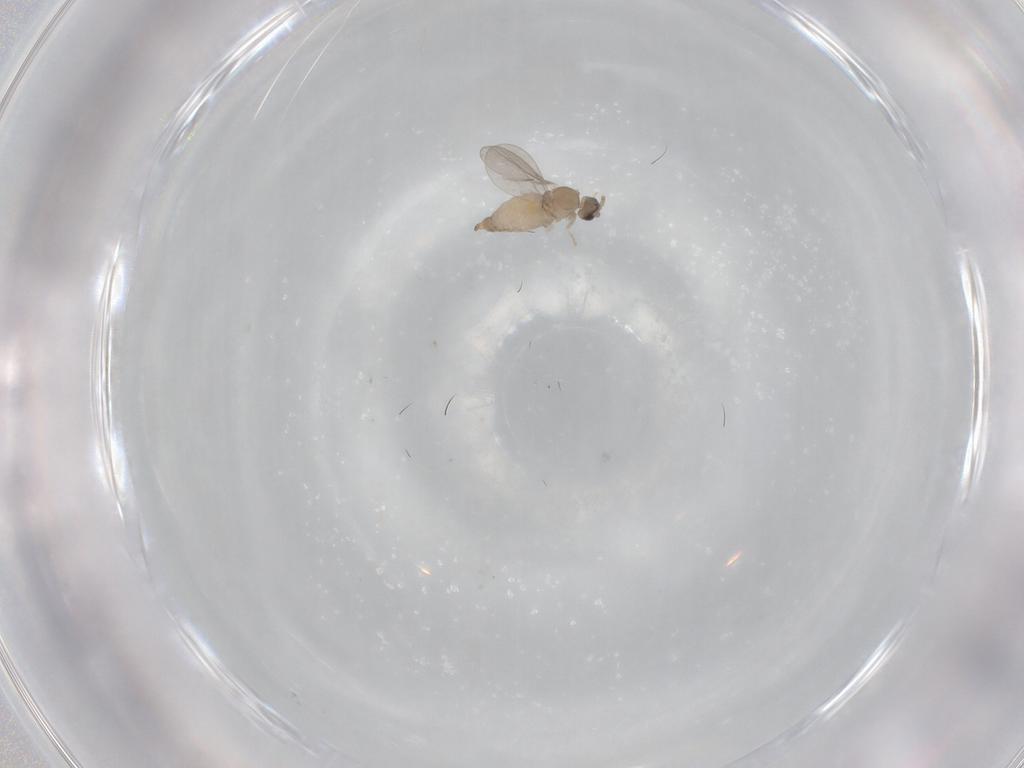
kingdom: Animalia
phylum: Arthropoda
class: Insecta
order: Diptera
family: Cecidomyiidae
